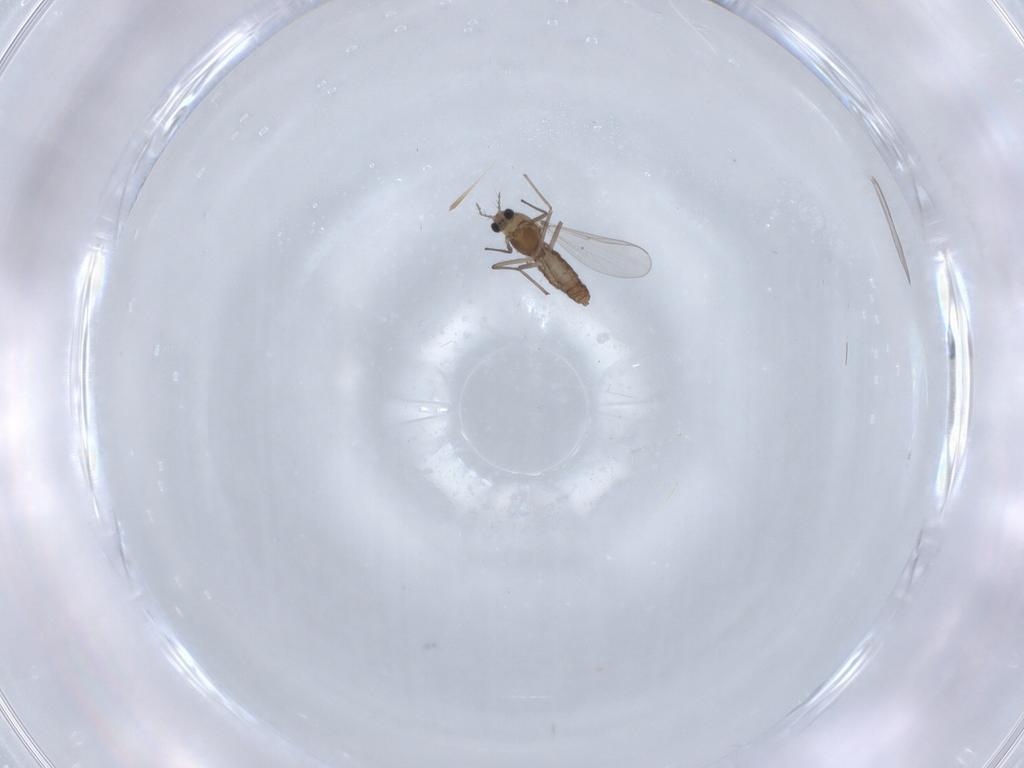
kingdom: Animalia
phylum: Arthropoda
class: Insecta
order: Diptera
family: Chironomidae
